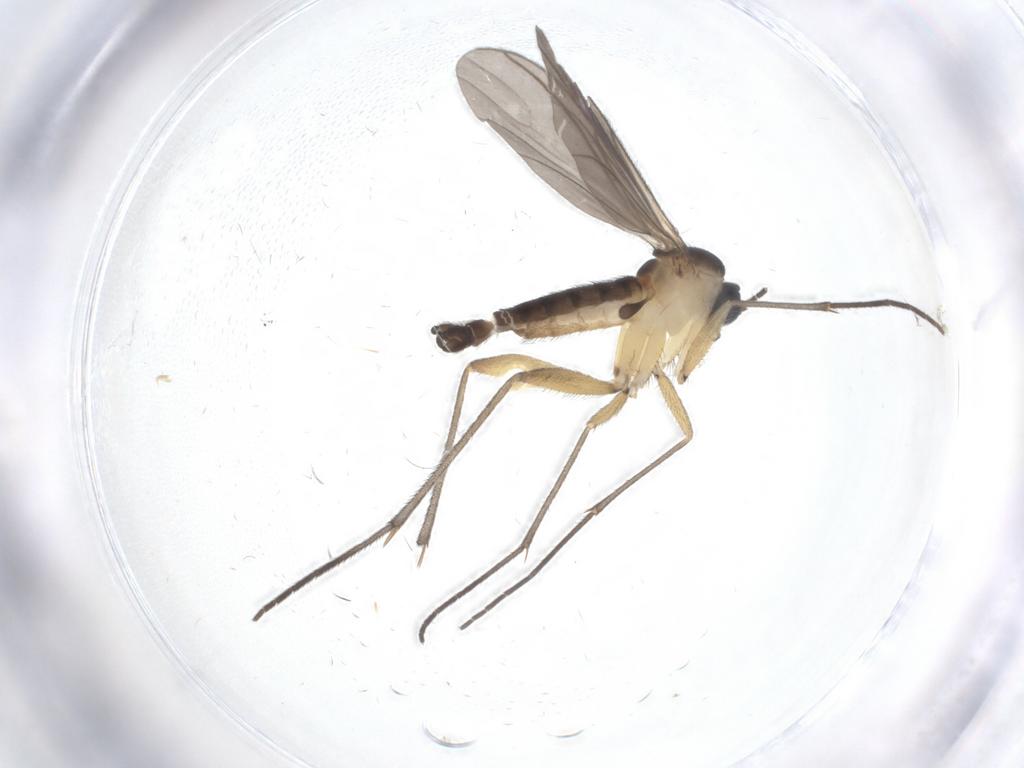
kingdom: Animalia
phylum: Arthropoda
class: Insecta
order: Diptera
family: Sciaridae
